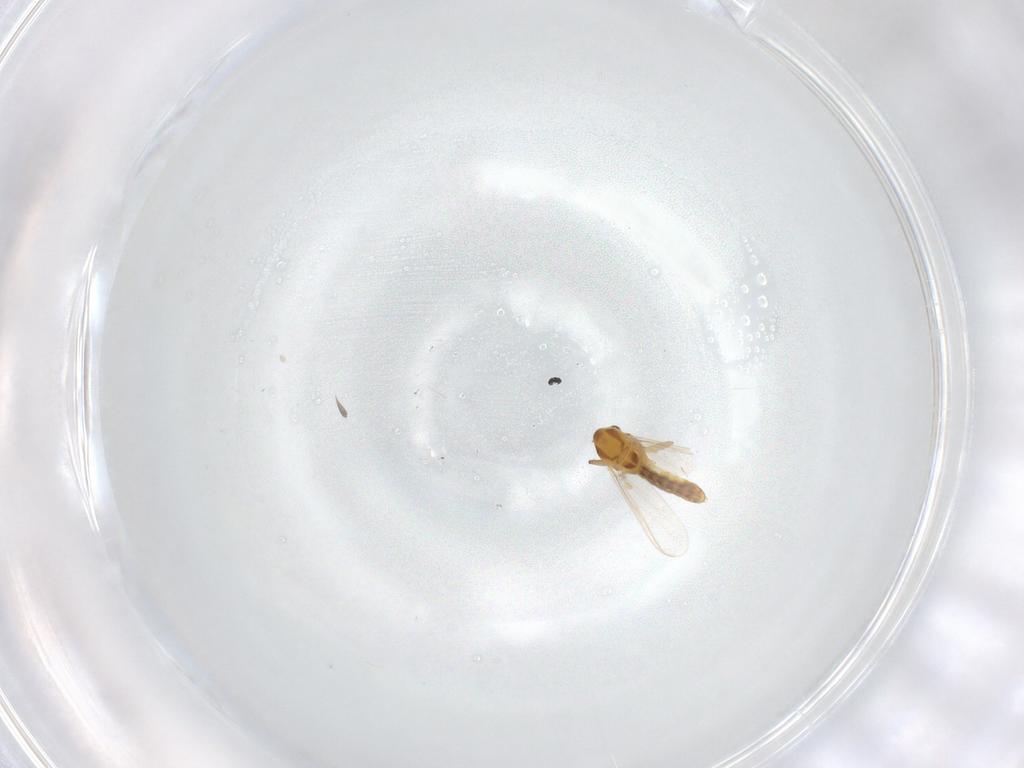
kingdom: Animalia
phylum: Arthropoda
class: Insecta
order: Diptera
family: Chironomidae
